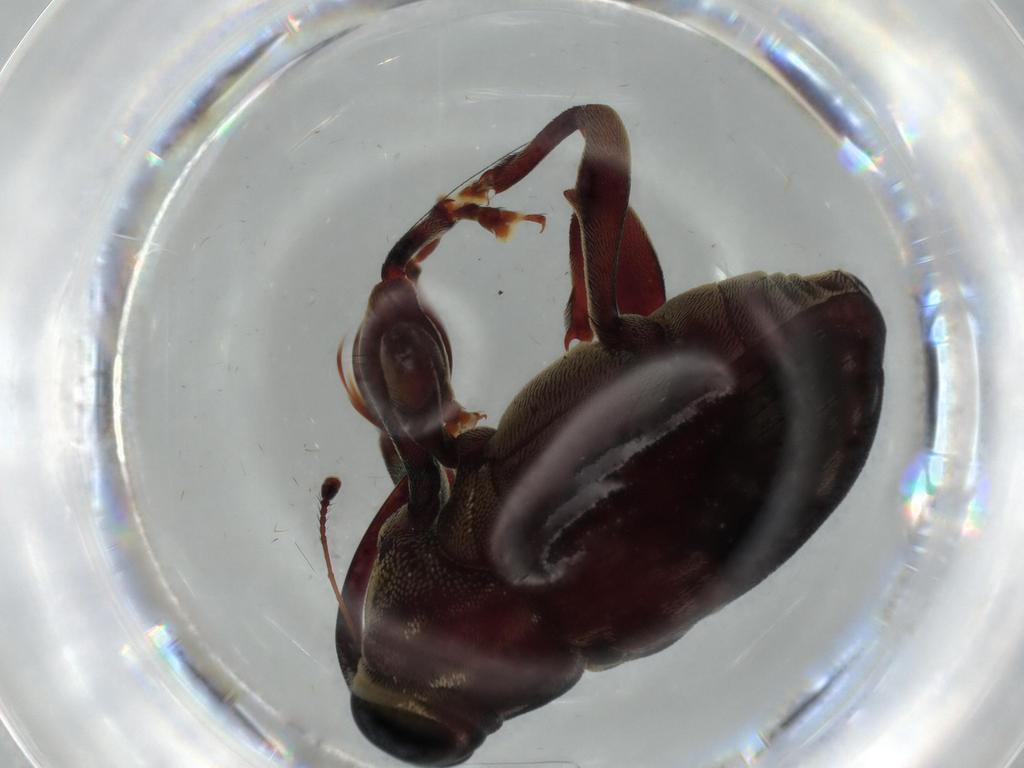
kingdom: Animalia
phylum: Arthropoda
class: Insecta
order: Coleoptera
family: Curculionidae
